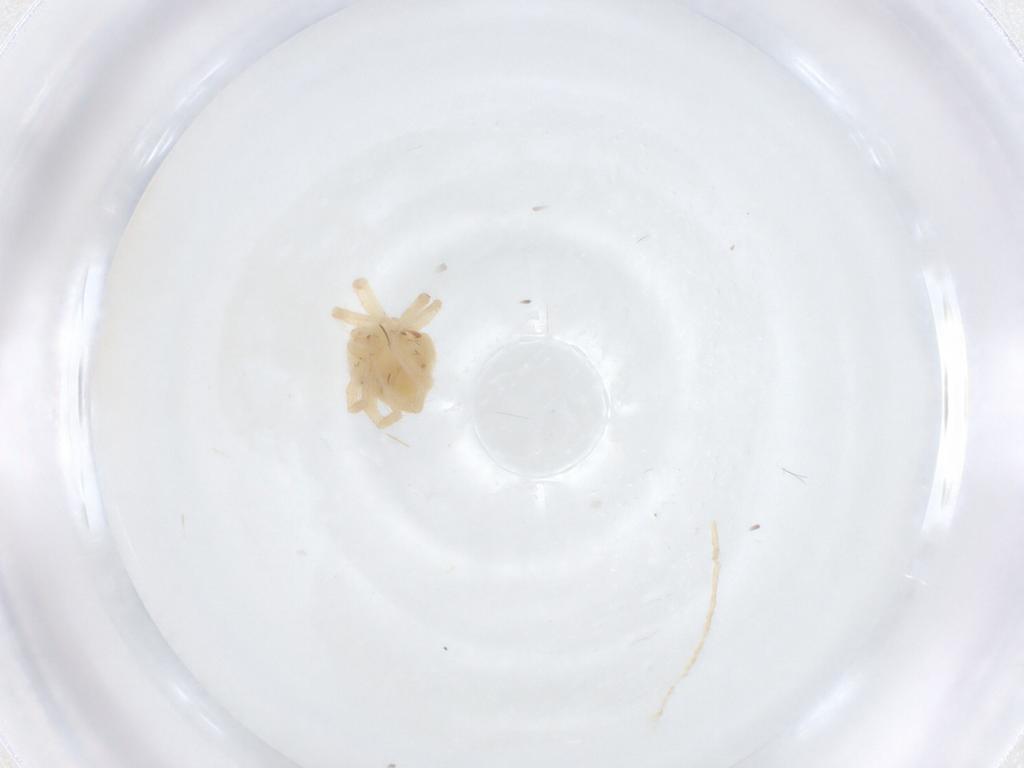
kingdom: Animalia
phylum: Arthropoda
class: Arachnida
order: Trombidiformes
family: Anystidae
